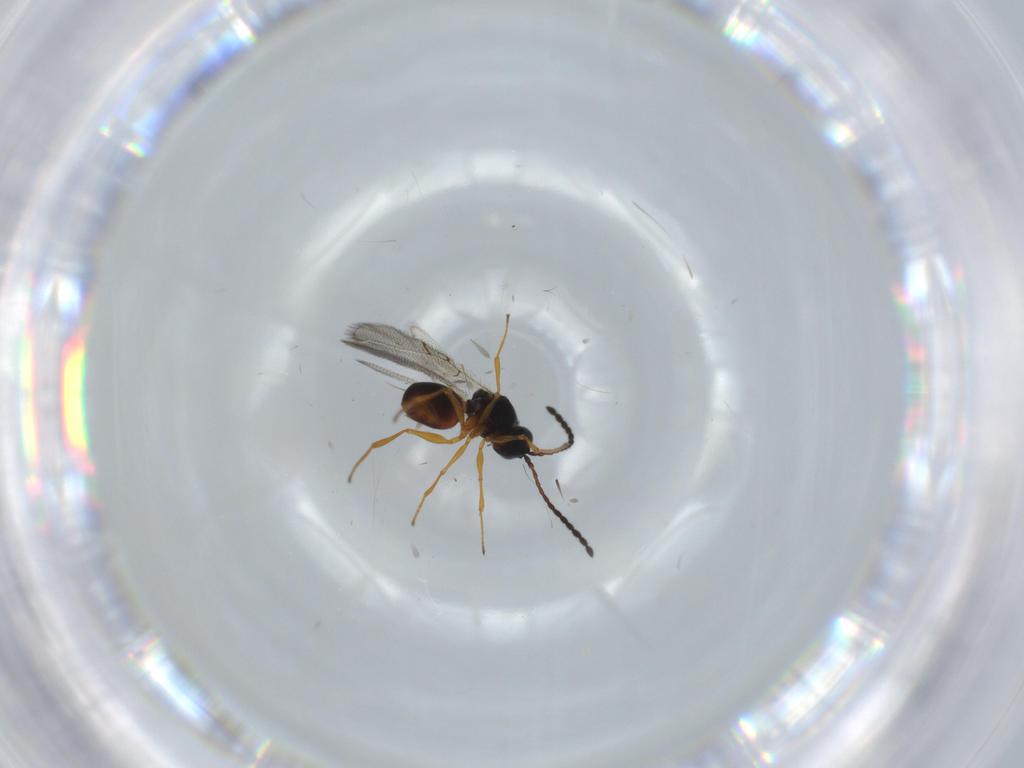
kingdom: Animalia
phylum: Arthropoda
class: Insecta
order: Hymenoptera
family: Figitidae
